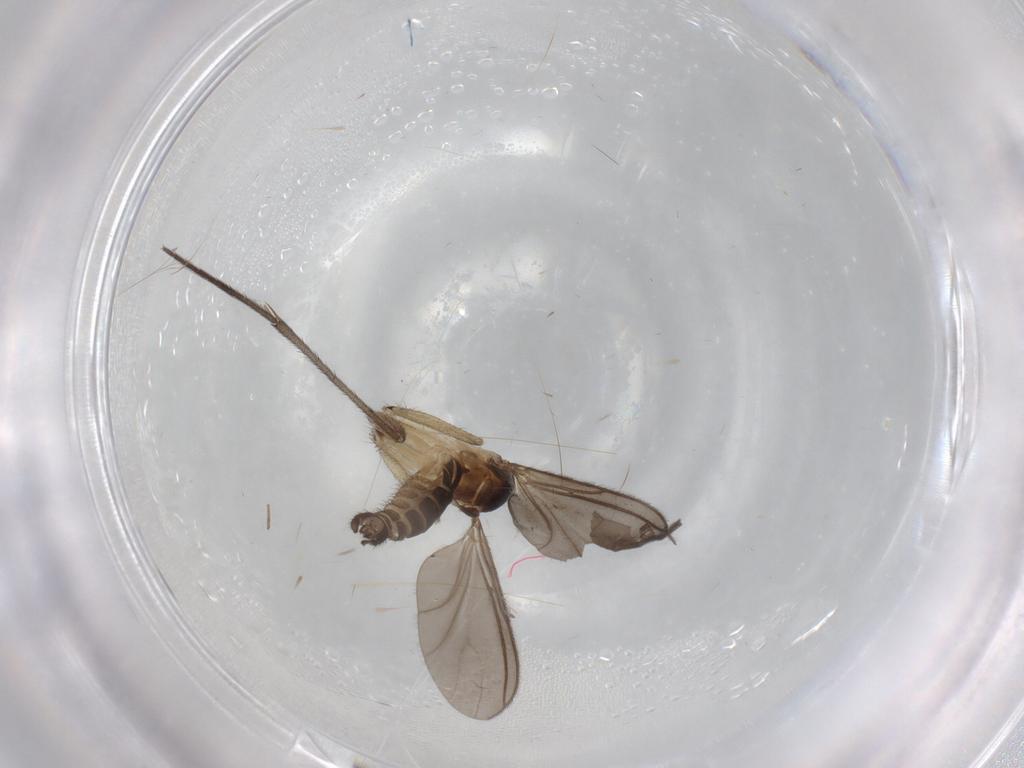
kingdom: Animalia
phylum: Arthropoda
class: Insecta
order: Diptera
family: Sciaridae
